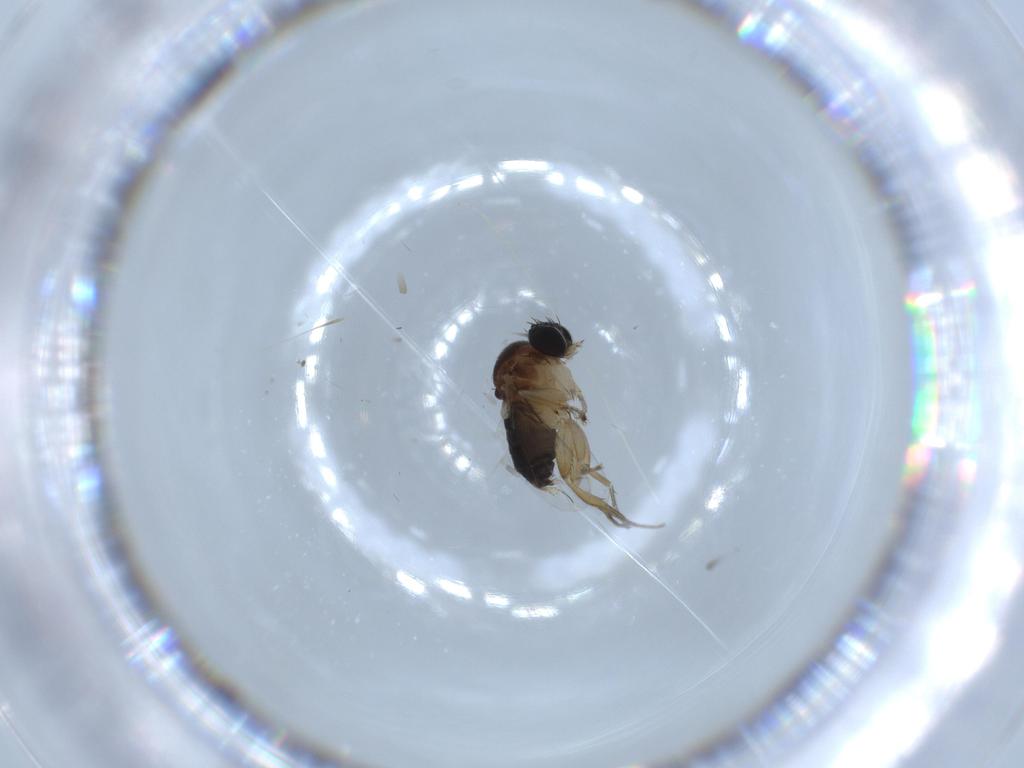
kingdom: Animalia
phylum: Arthropoda
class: Insecta
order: Diptera
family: Phoridae
